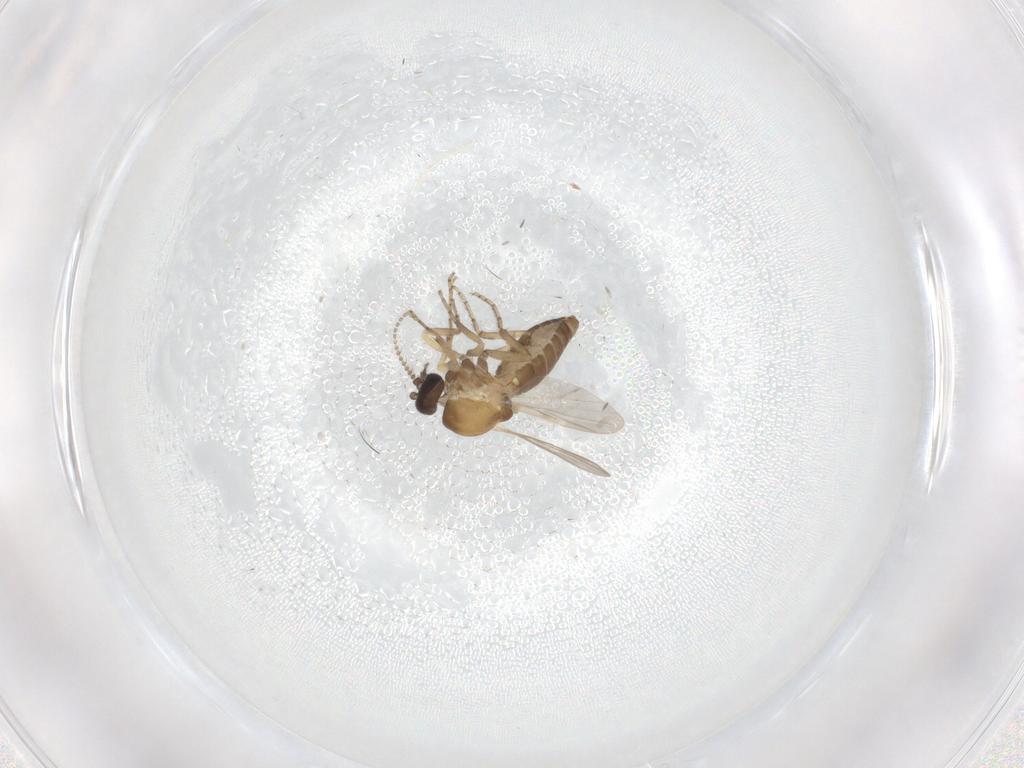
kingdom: Animalia
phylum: Arthropoda
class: Insecta
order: Diptera
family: Ceratopogonidae
